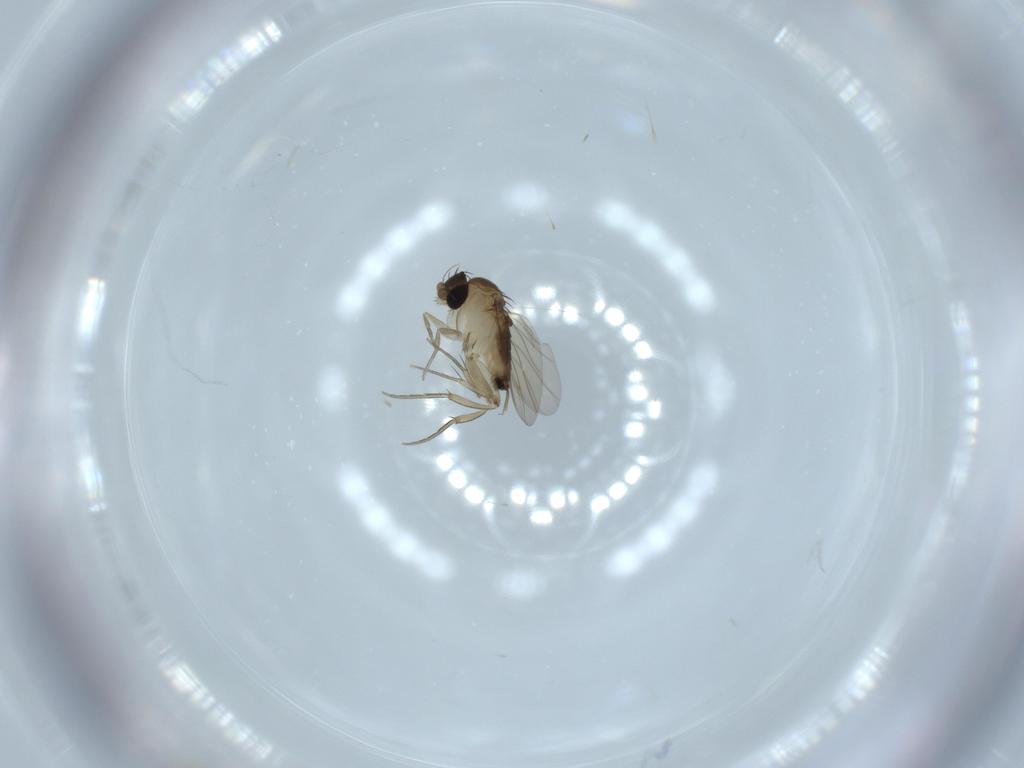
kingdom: Animalia
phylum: Arthropoda
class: Insecta
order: Diptera
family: Phoridae
